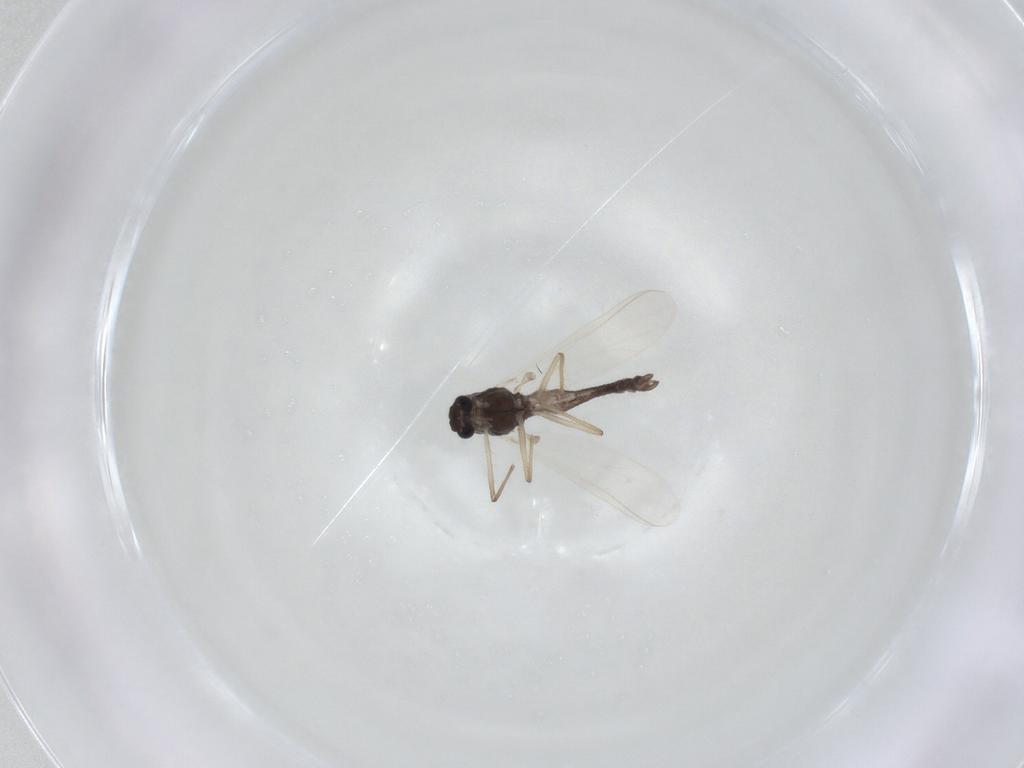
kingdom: Animalia
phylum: Arthropoda
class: Insecta
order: Diptera
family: Chironomidae
